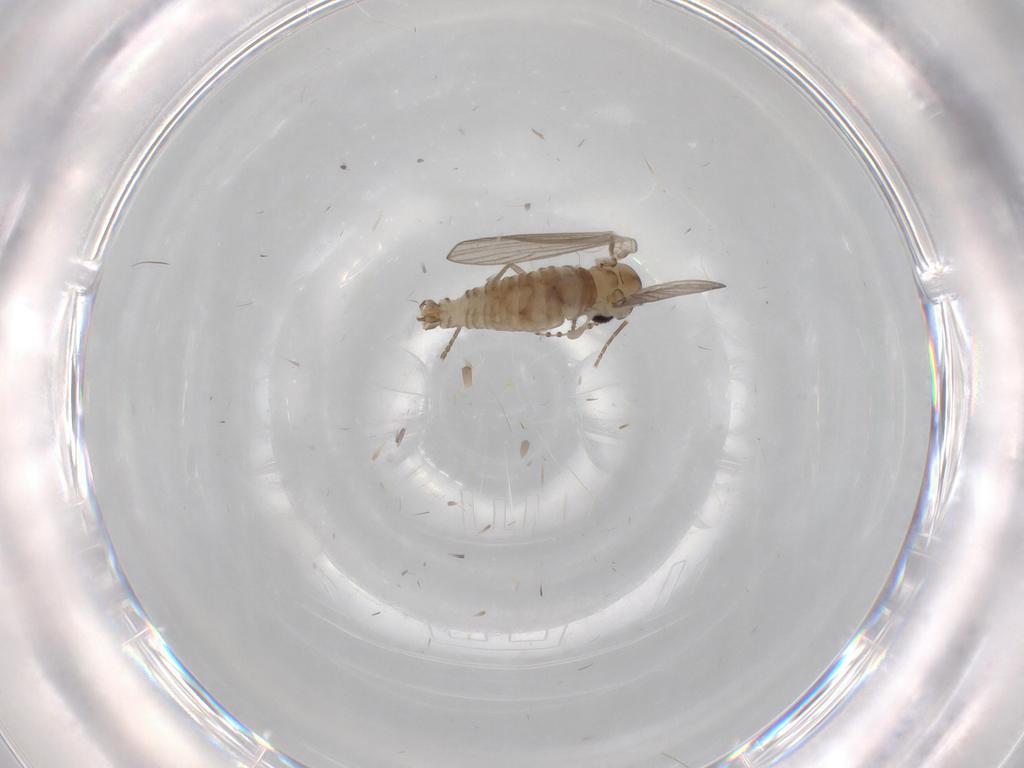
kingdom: Animalia
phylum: Arthropoda
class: Insecta
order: Diptera
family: Psychodidae
